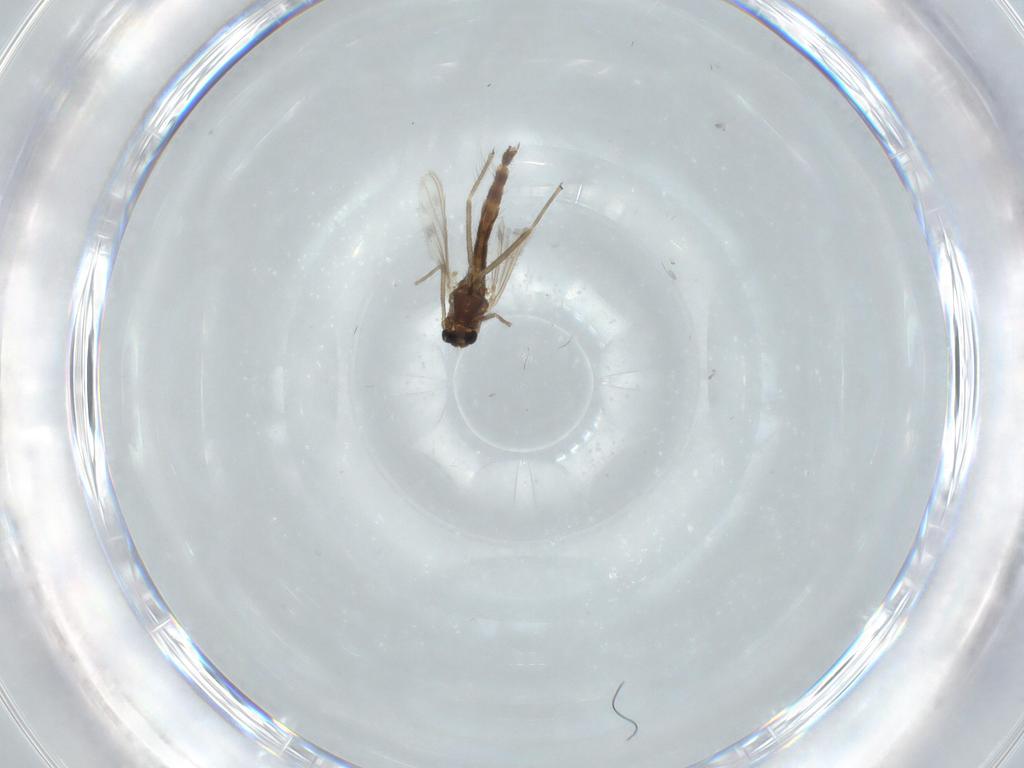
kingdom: Animalia
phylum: Arthropoda
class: Insecta
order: Diptera
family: Chironomidae
